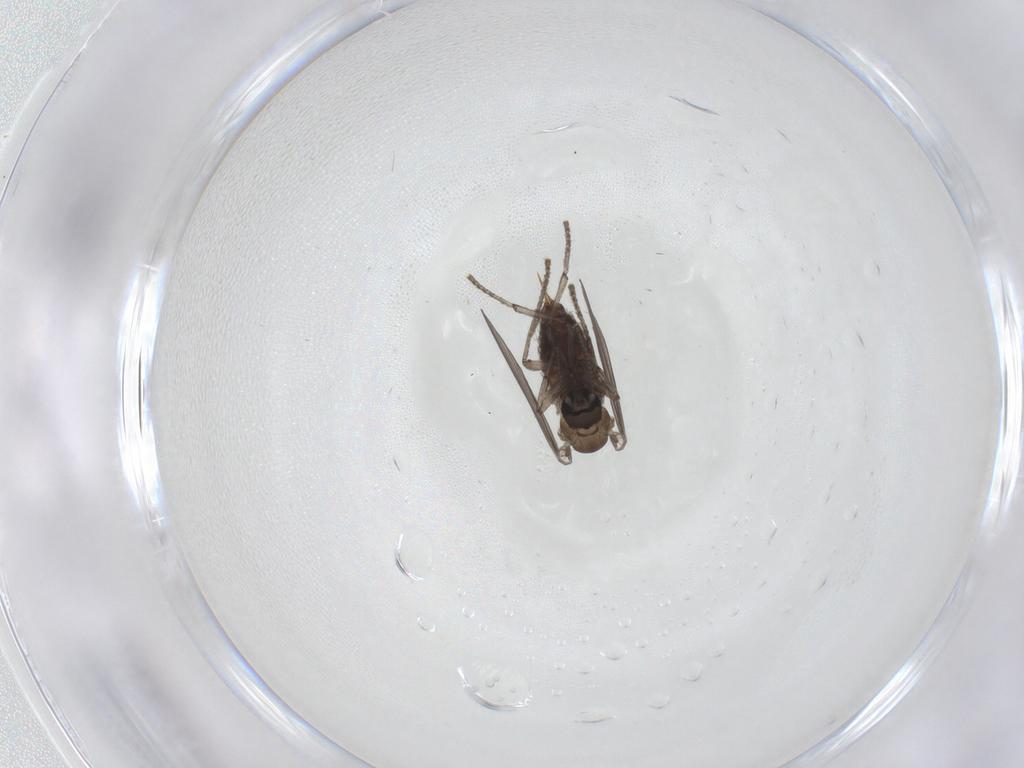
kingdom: Animalia
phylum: Arthropoda
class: Insecta
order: Diptera
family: Psychodidae
